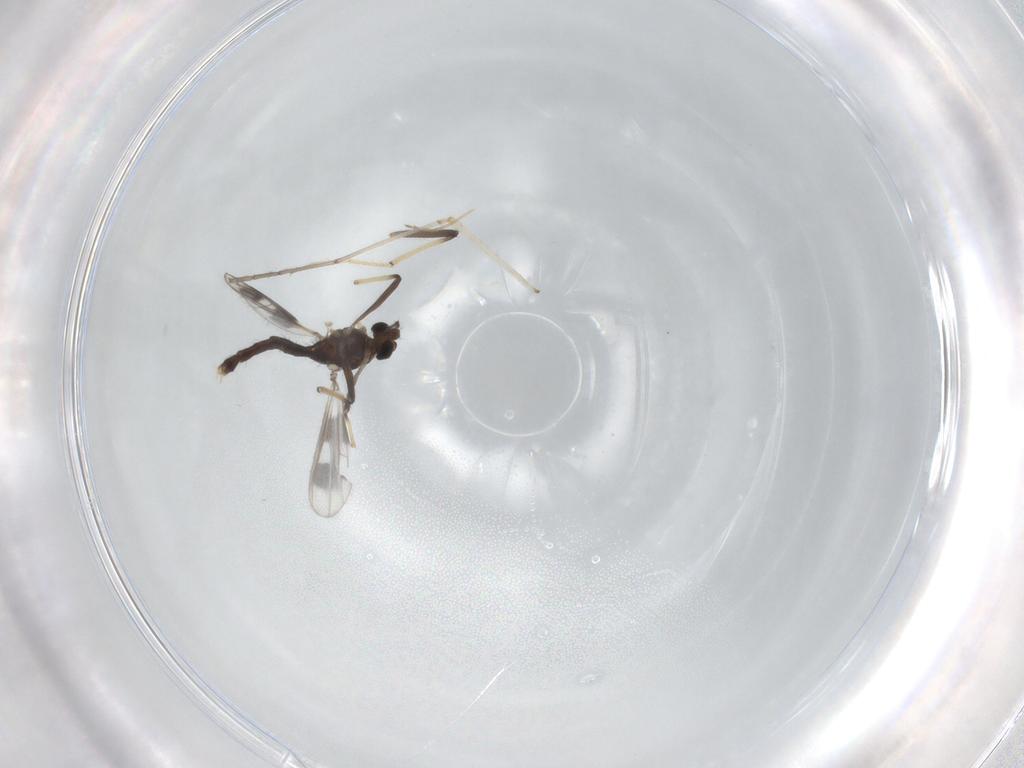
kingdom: Animalia
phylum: Arthropoda
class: Insecta
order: Diptera
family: Chironomidae
